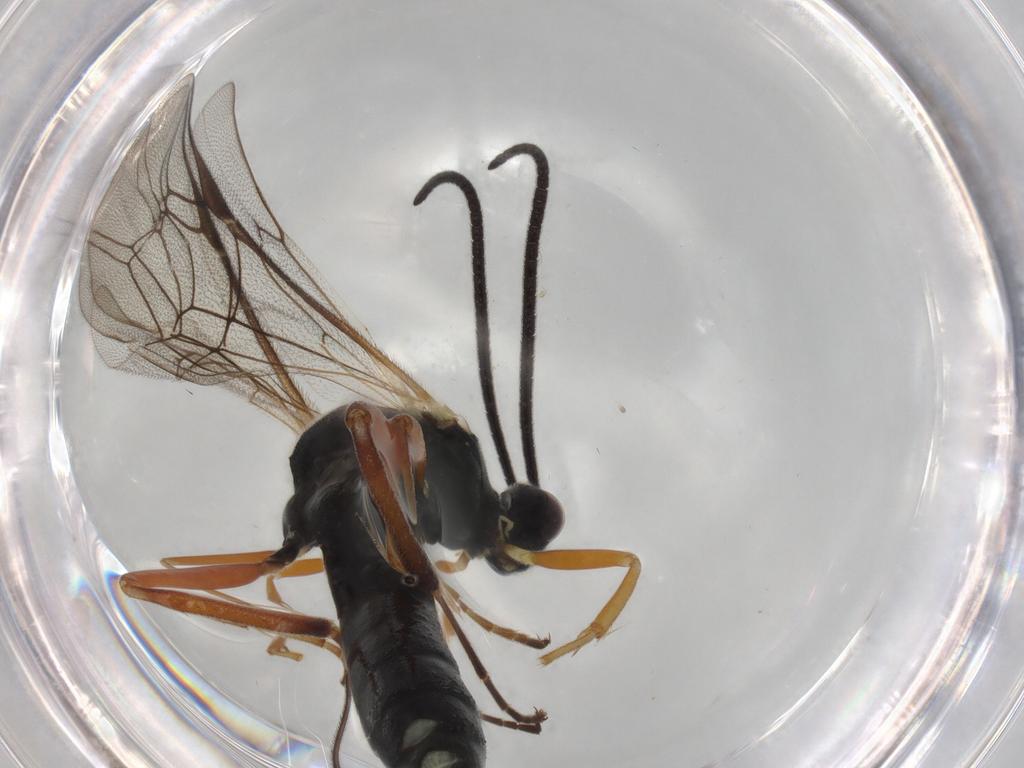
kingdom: Animalia
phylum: Arthropoda
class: Insecta
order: Hymenoptera
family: Ichneumonidae
